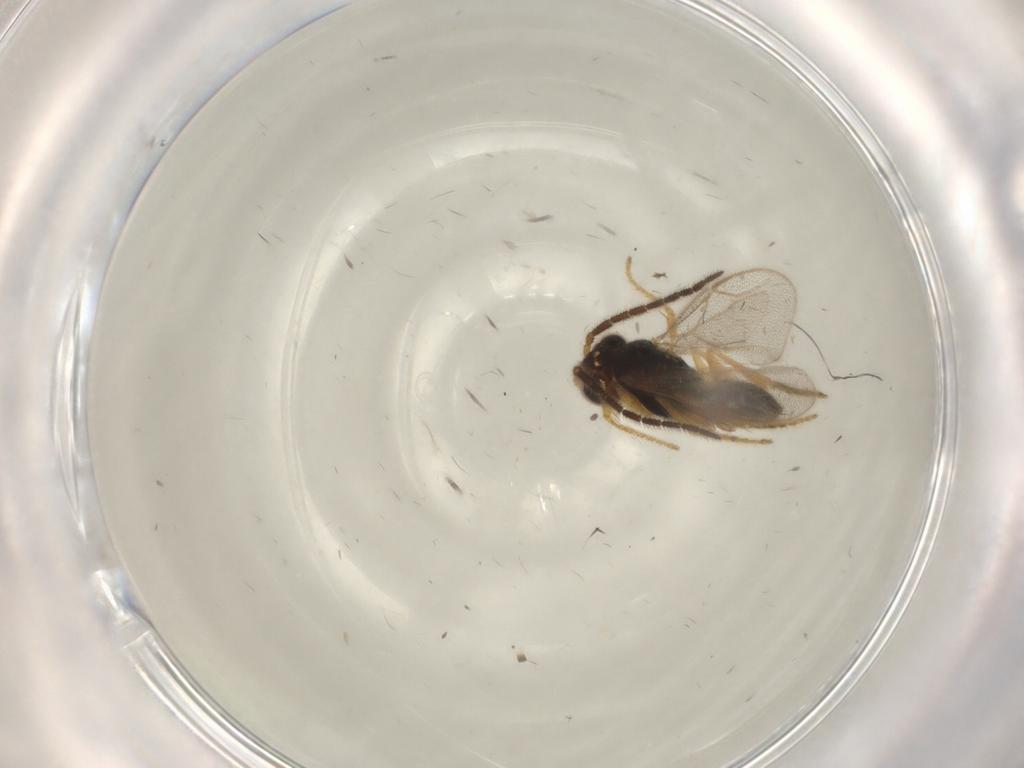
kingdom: Animalia
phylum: Arthropoda
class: Insecta
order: Hymenoptera
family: Dryinidae
